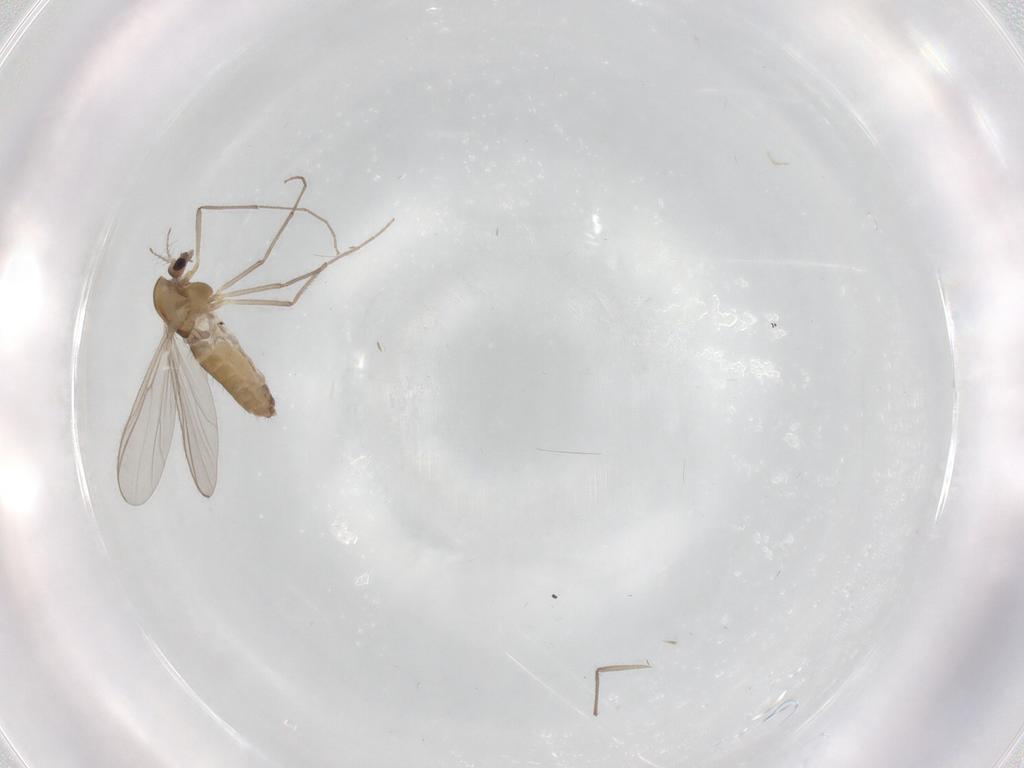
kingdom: Animalia
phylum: Arthropoda
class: Insecta
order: Diptera
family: Chironomidae
